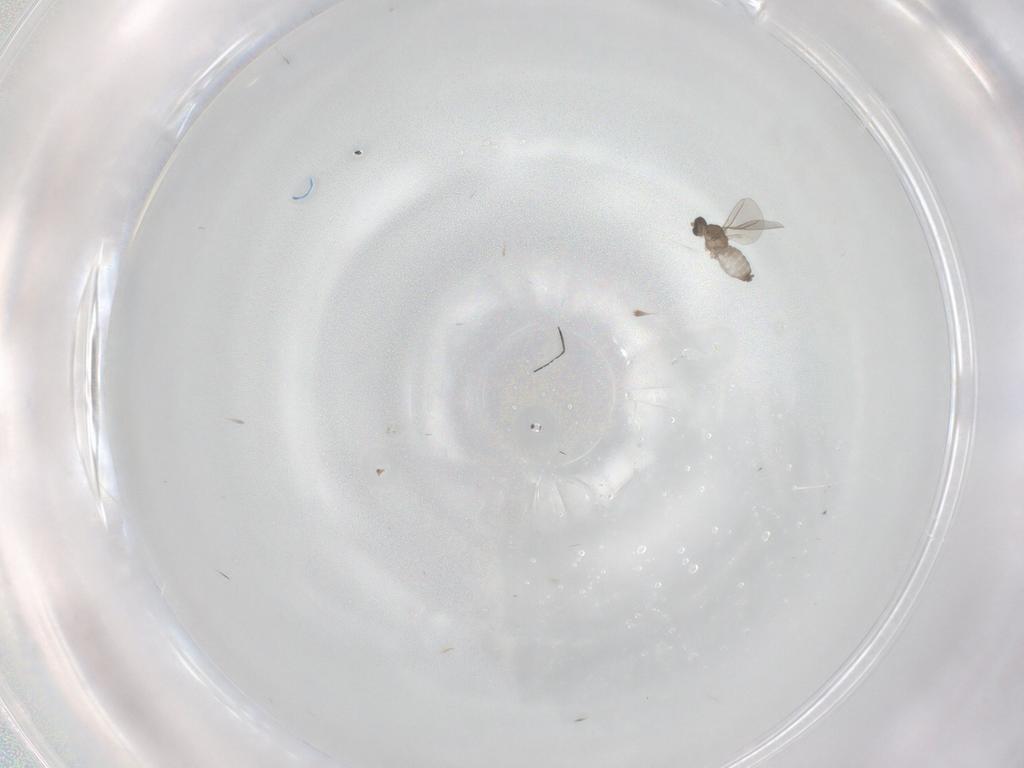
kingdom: Animalia
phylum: Arthropoda
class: Insecta
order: Diptera
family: Cecidomyiidae
